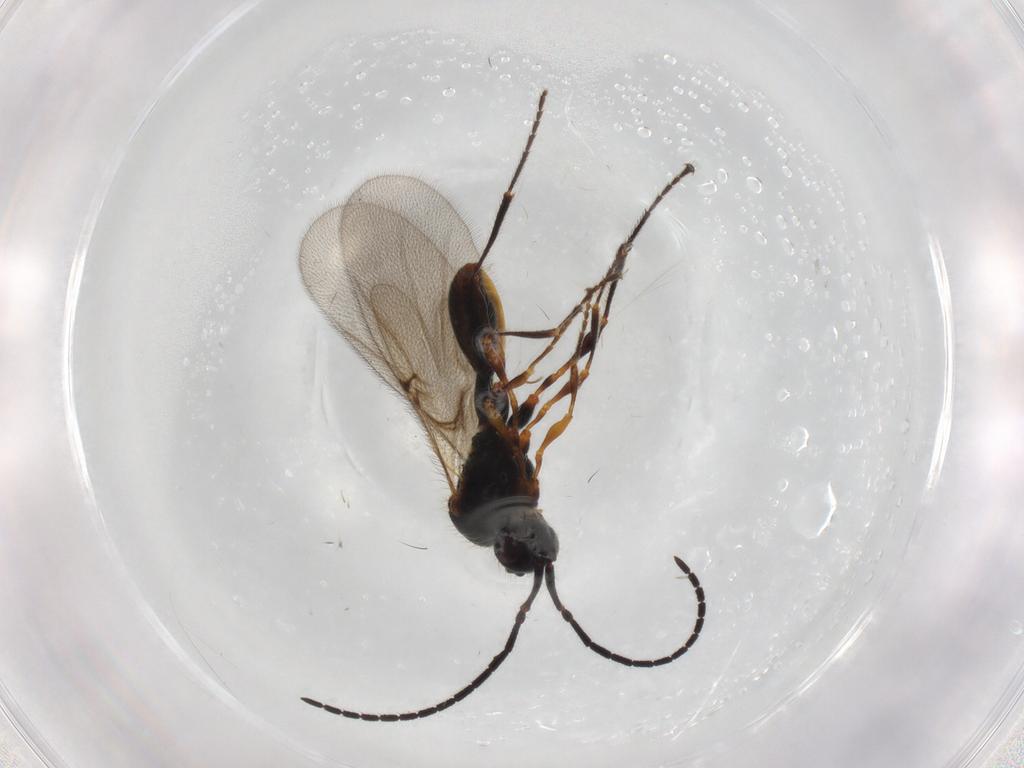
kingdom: Animalia
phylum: Arthropoda
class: Insecta
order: Hymenoptera
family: Diapriidae
